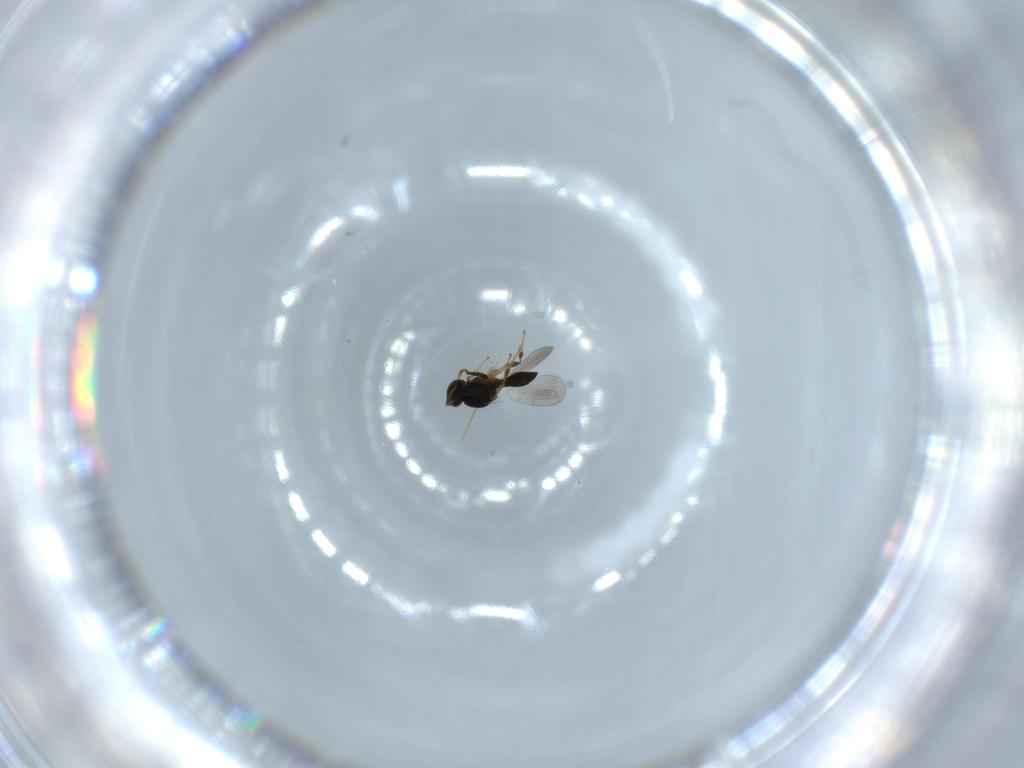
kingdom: Animalia
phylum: Arthropoda
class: Insecta
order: Hymenoptera
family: Platygastridae
